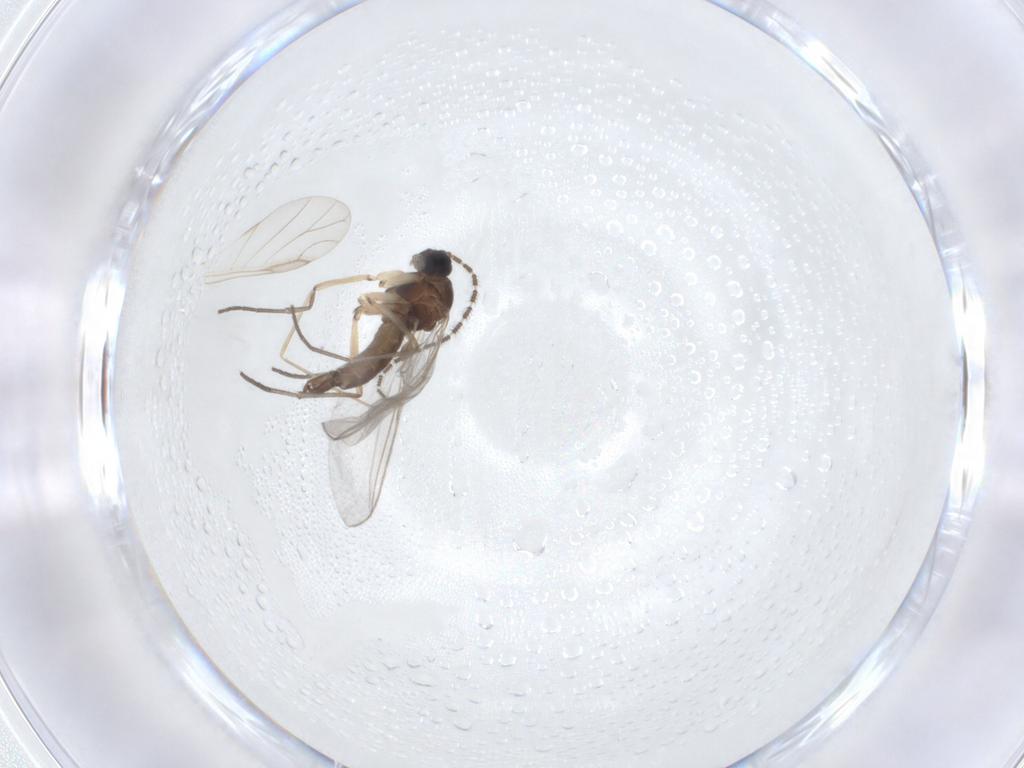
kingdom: Animalia
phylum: Arthropoda
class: Insecta
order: Diptera
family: Sciaridae
